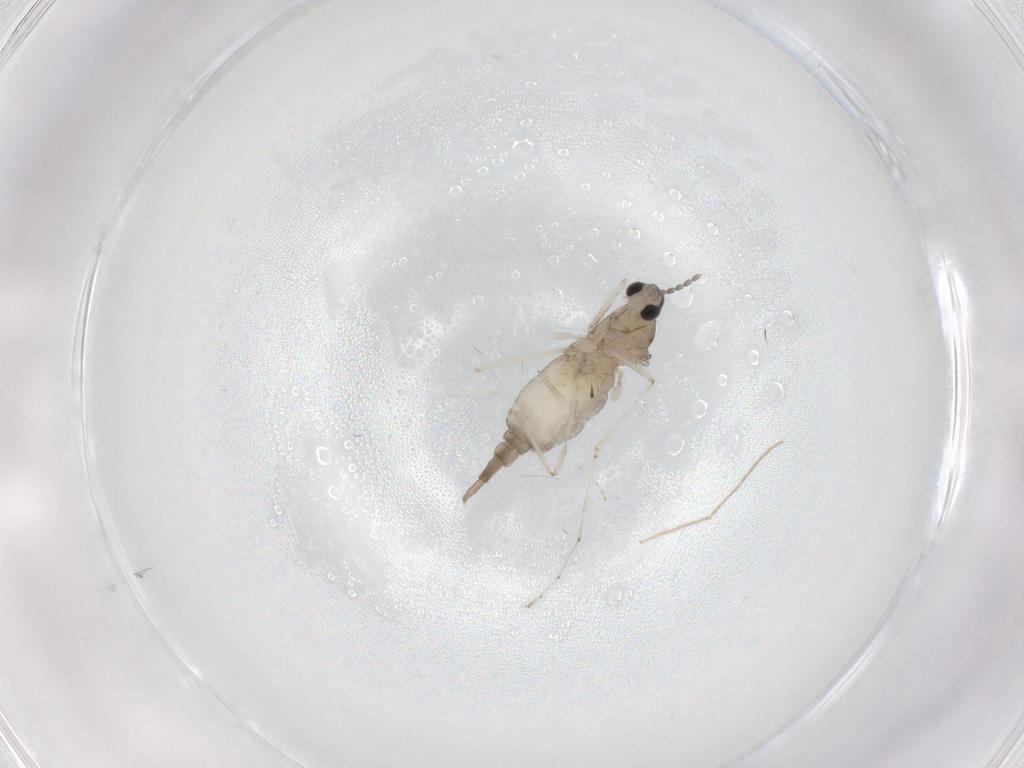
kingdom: Animalia
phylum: Arthropoda
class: Insecta
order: Diptera
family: Cecidomyiidae
